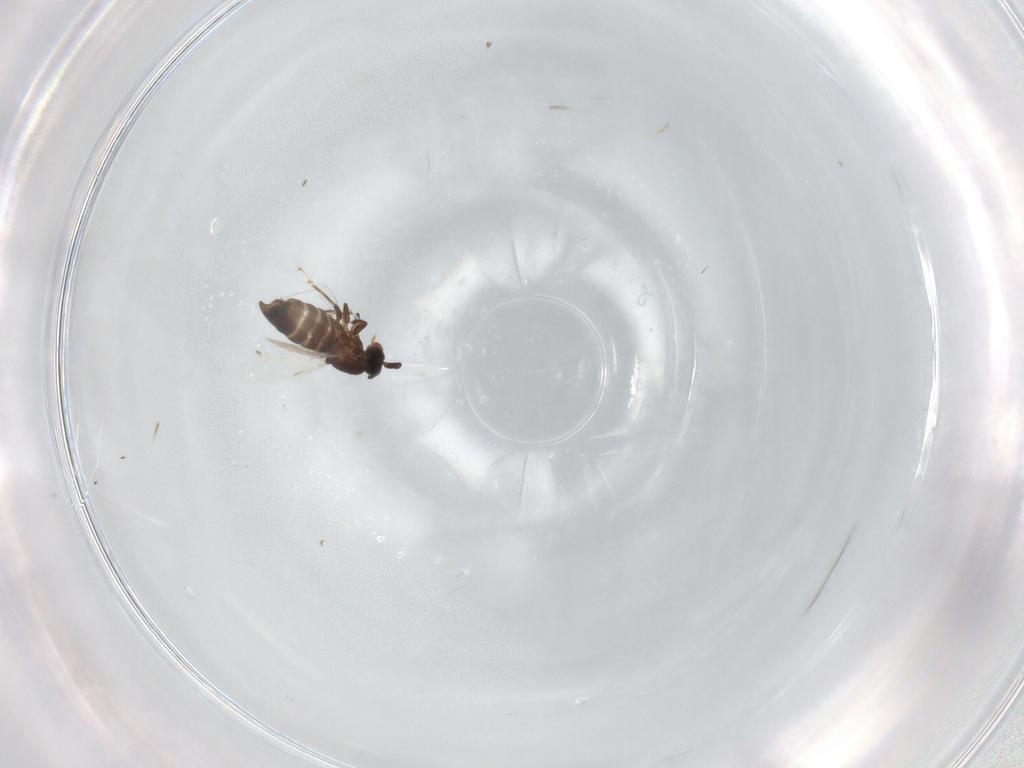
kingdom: Animalia
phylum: Arthropoda
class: Insecta
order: Diptera
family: Scatopsidae
